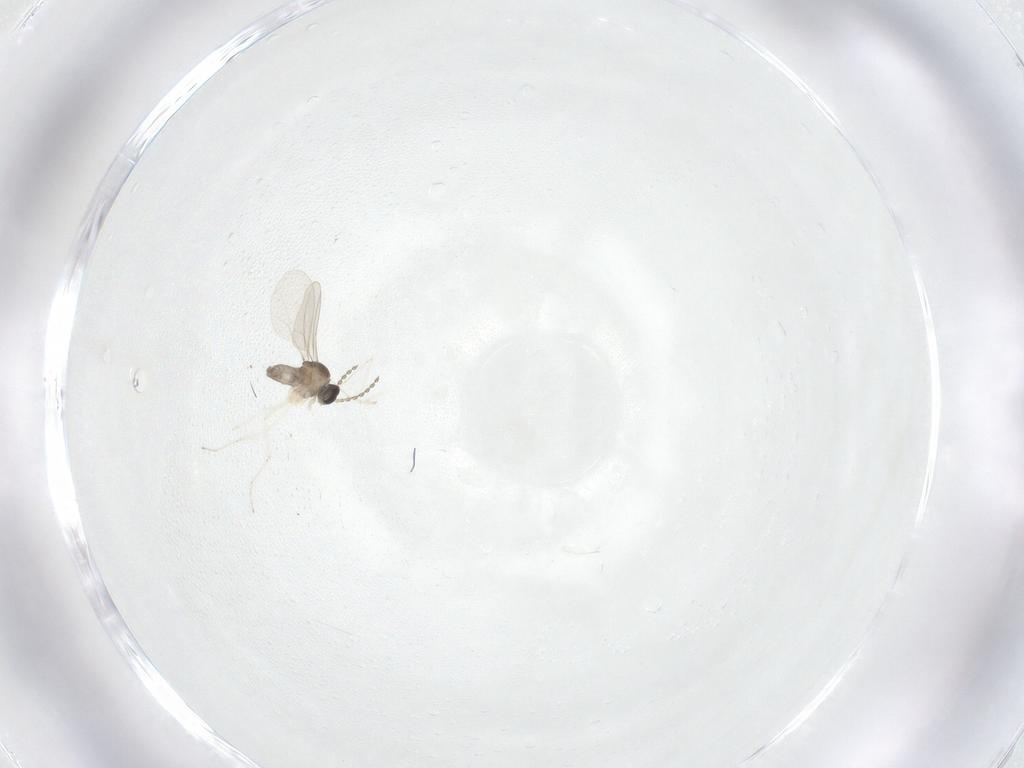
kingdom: Animalia
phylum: Arthropoda
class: Insecta
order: Diptera
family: Cecidomyiidae
